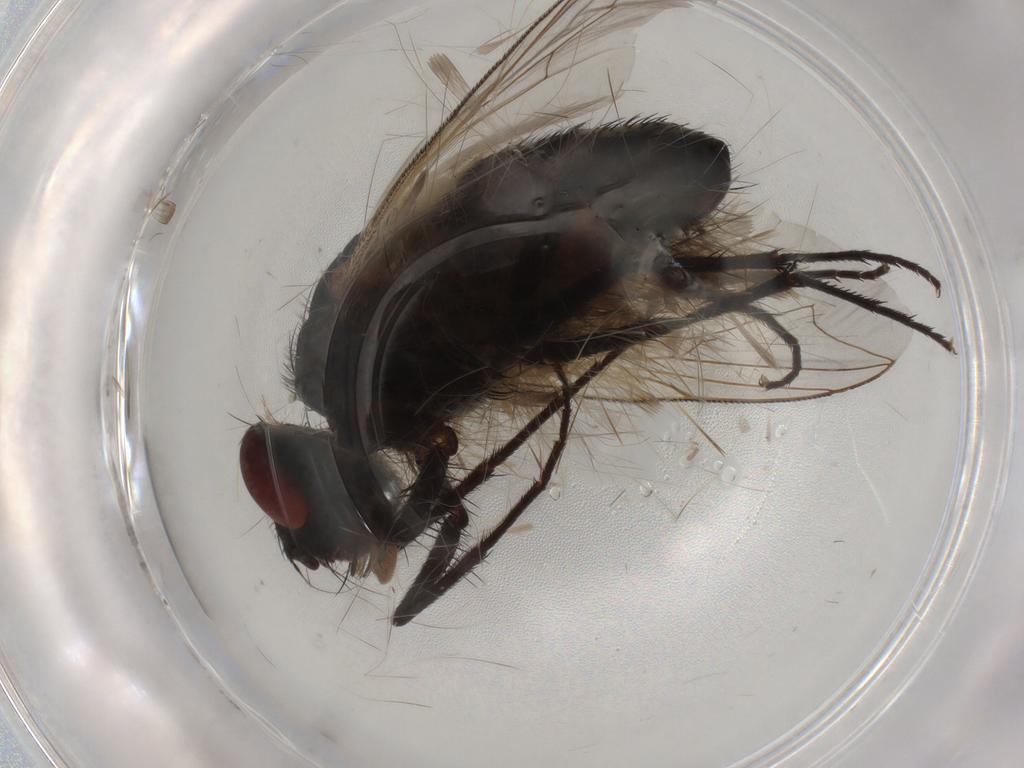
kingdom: Animalia
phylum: Arthropoda
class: Insecta
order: Diptera
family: Sarcophagidae
